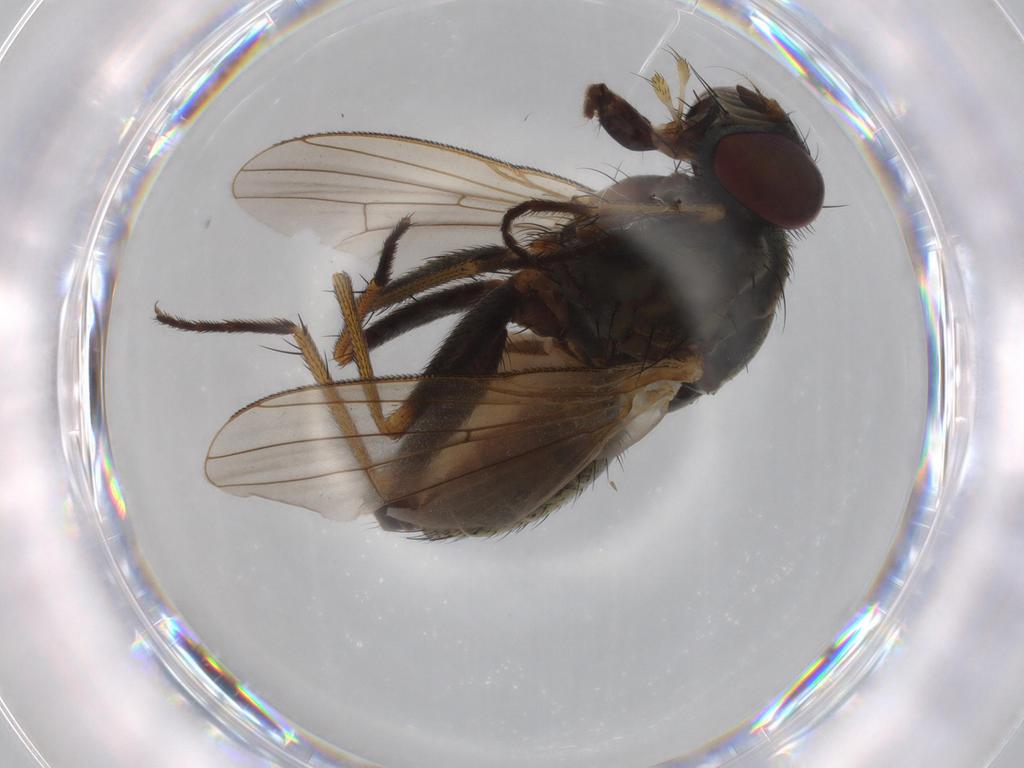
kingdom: Animalia
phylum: Arthropoda
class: Insecta
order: Diptera
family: Muscidae
